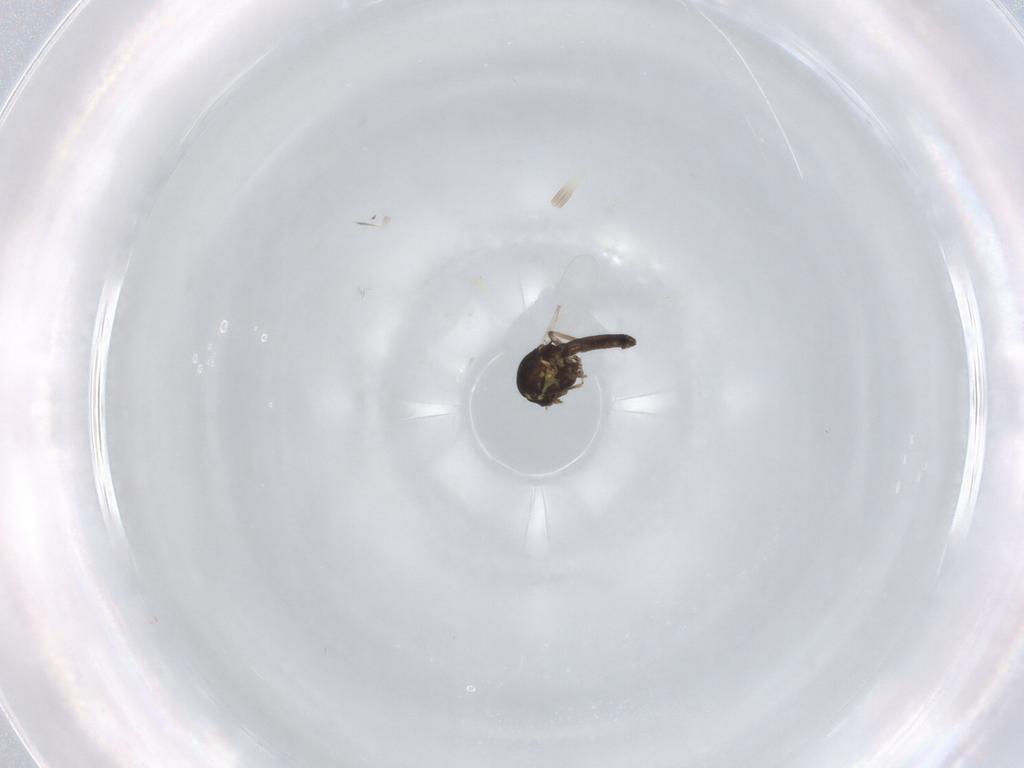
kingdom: Animalia
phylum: Arthropoda
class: Insecta
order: Diptera
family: Ceratopogonidae
